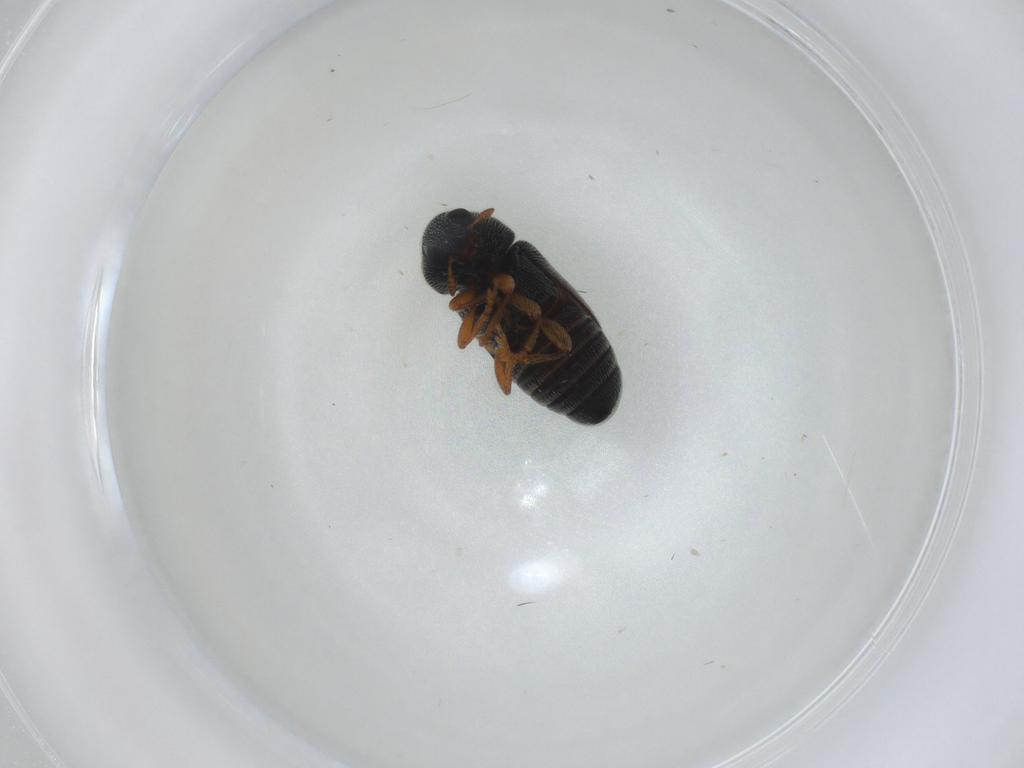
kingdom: Animalia
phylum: Arthropoda
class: Insecta
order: Coleoptera
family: Anthribidae
